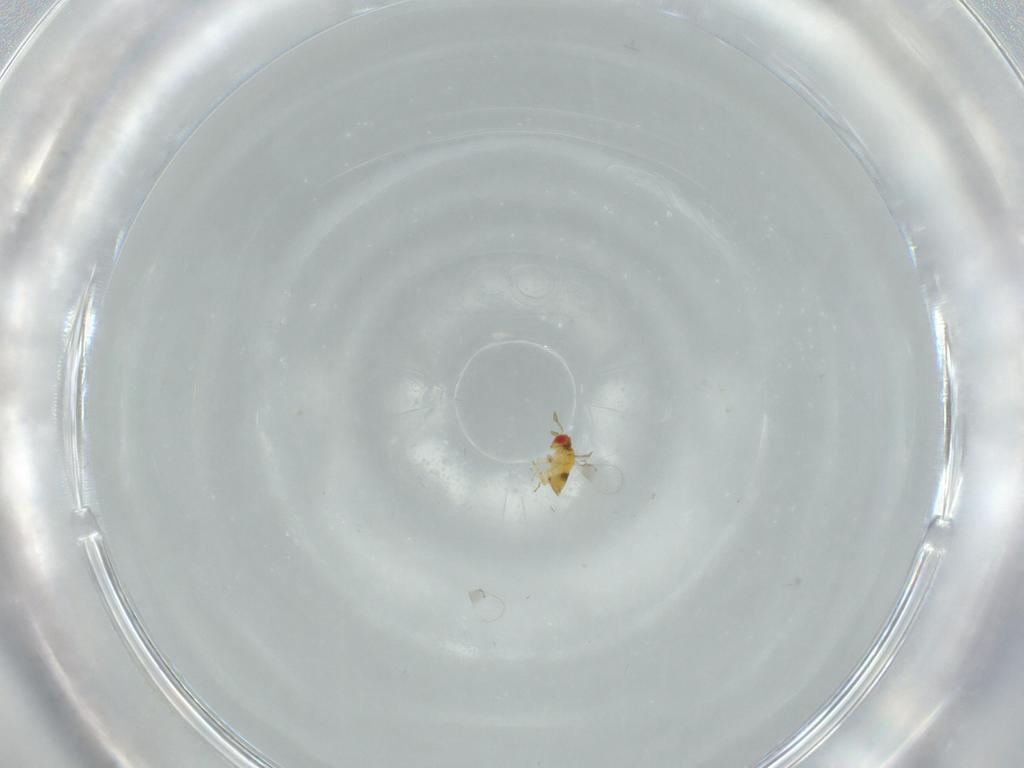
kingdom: Animalia
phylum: Arthropoda
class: Insecta
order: Hymenoptera
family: Trichogrammatidae
